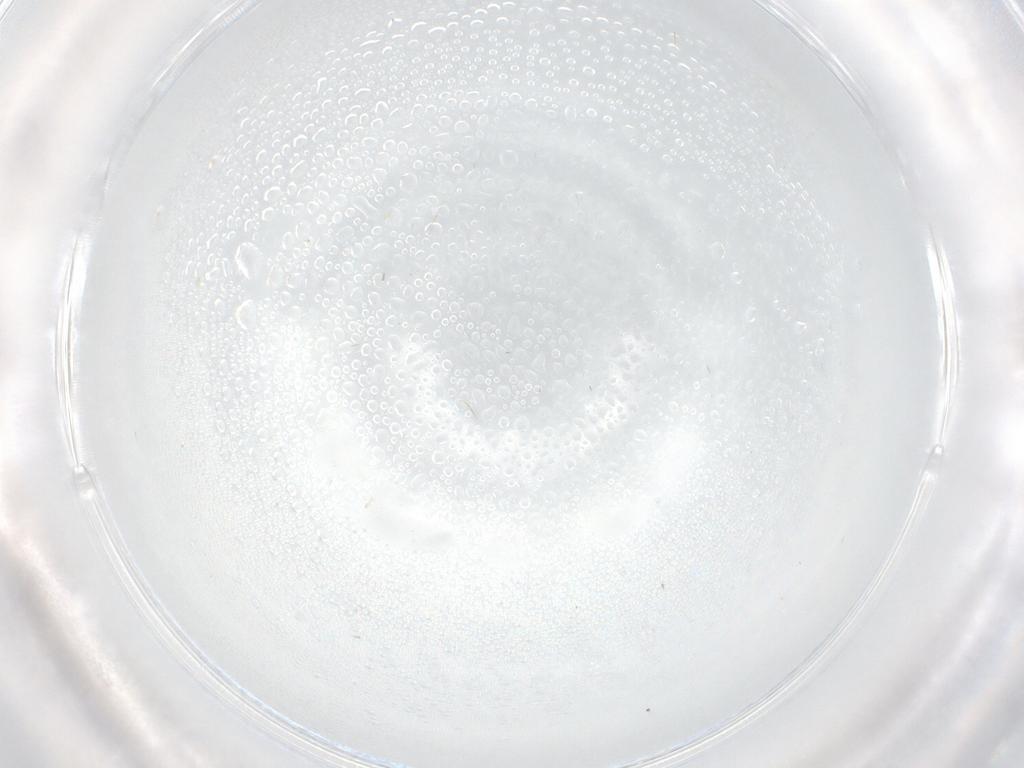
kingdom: Animalia
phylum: Arthropoda
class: Insecta
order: Diptera
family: Cecidomyiidae
